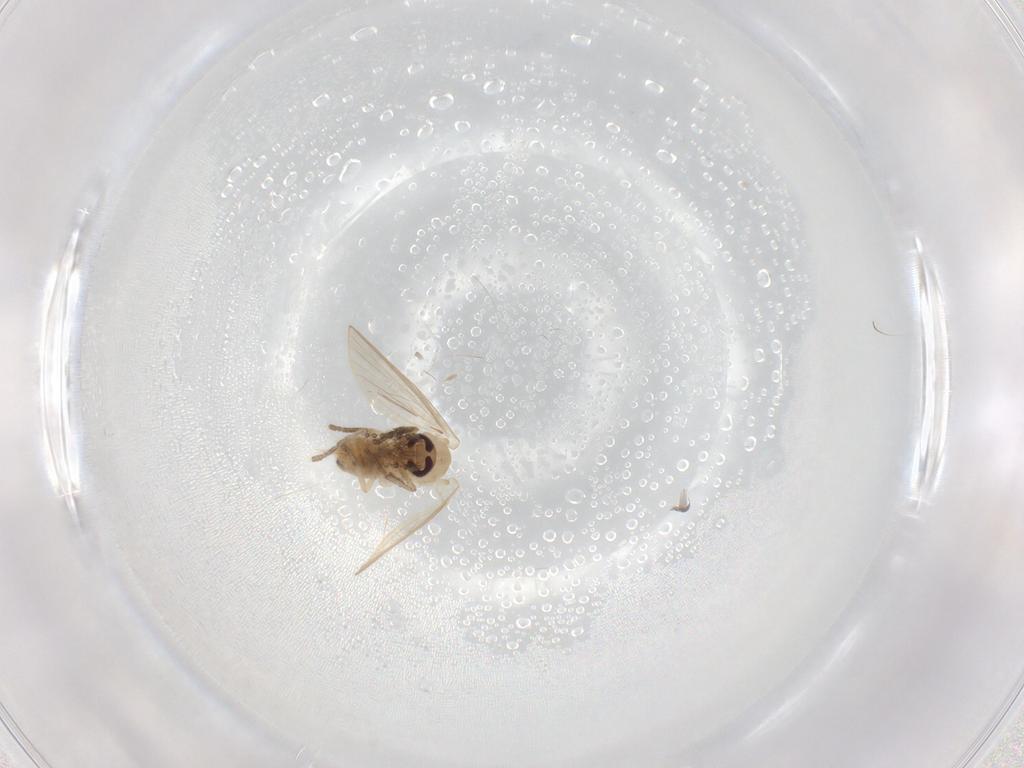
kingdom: Animalia
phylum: Arthropoda
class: Insecta
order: Diptera
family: Psychodidae
